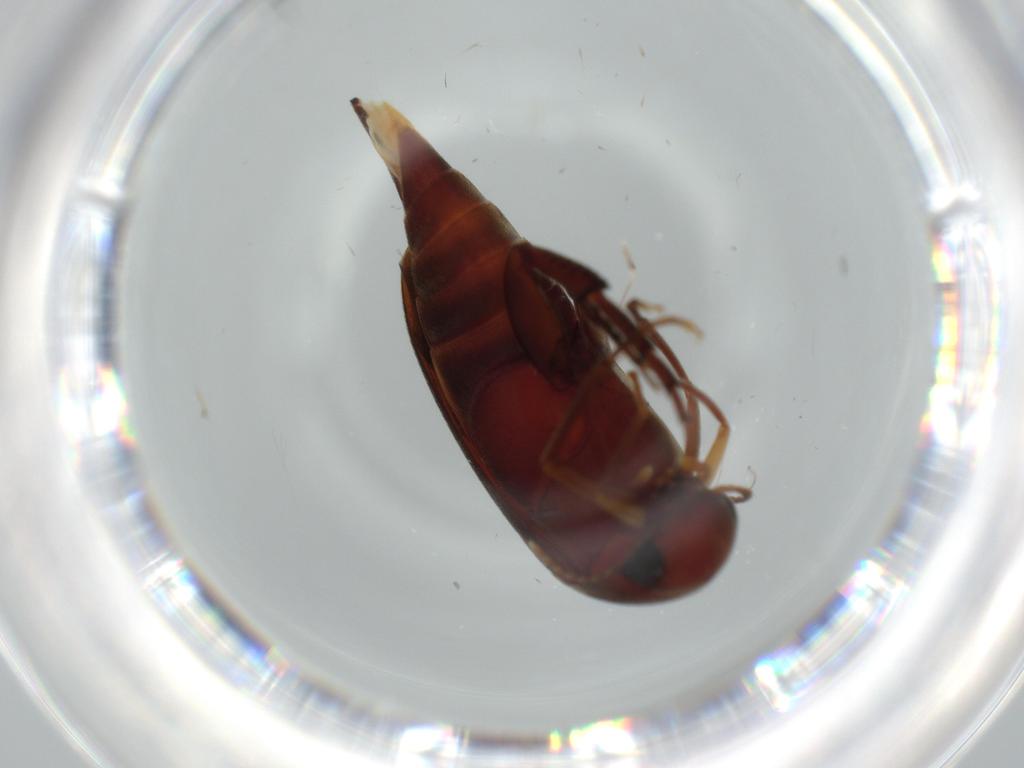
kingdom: Animalia
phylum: Arthropoda
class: Insecta
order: Coleoptera
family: Mordellidae
